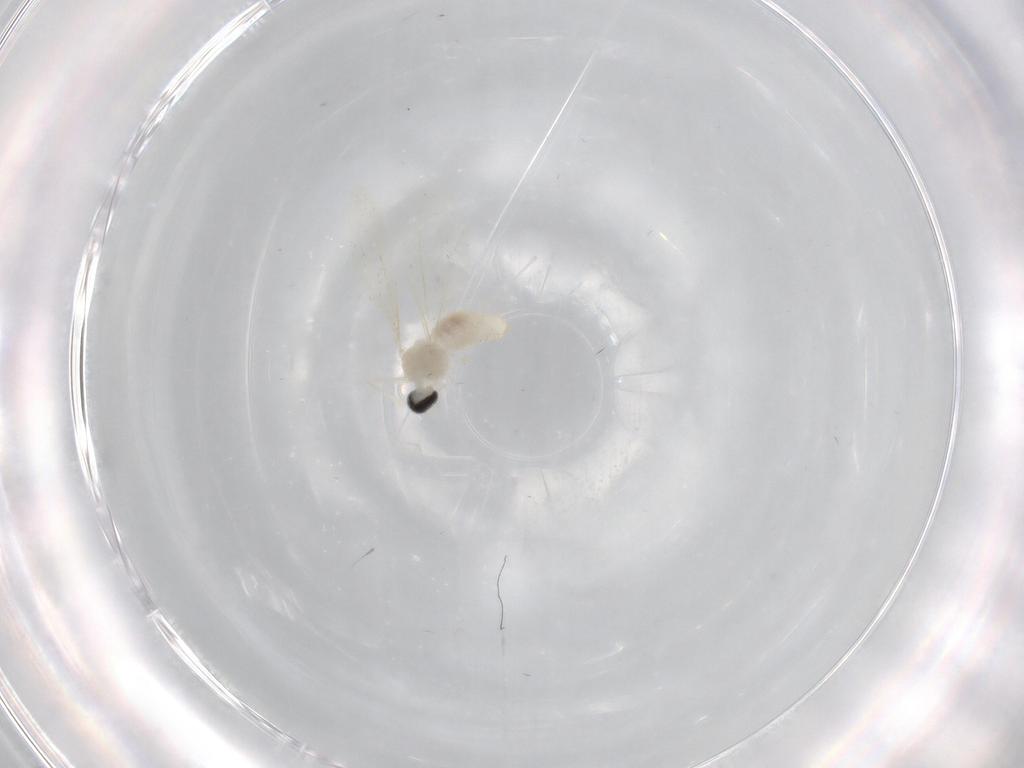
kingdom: Animalia
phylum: Arthropoda
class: Insecta
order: Diptera
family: Cecidomyiidae
